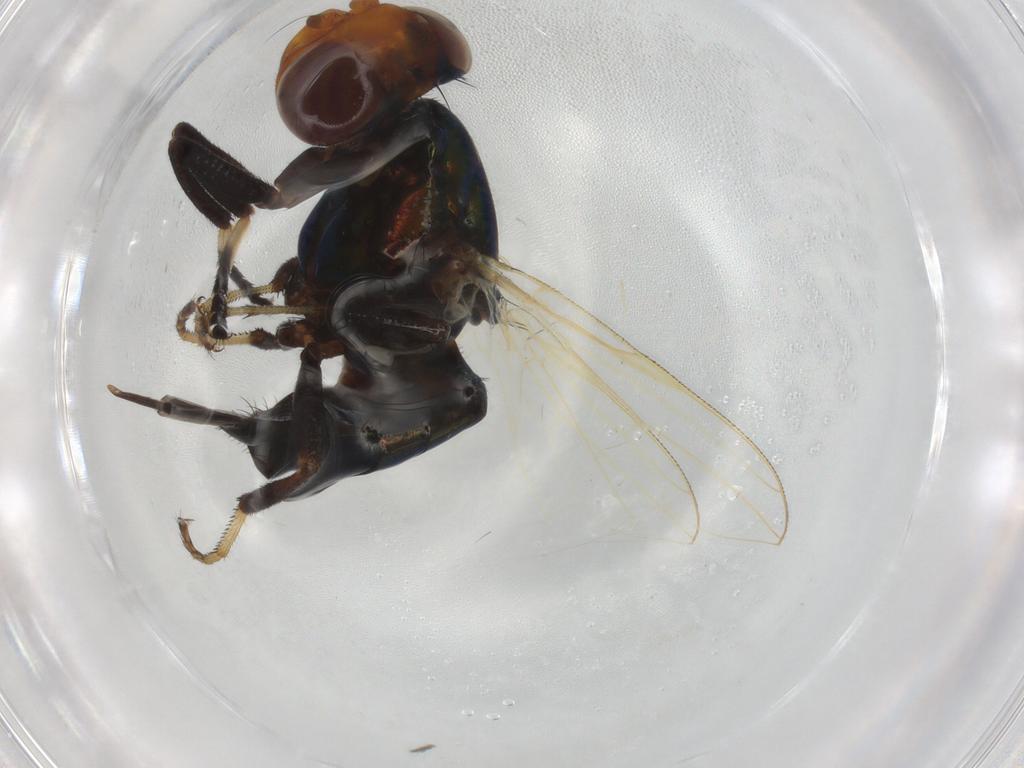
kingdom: Animalia
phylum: Arthropoda
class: Insecta
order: Diptera
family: Ulidiidae
